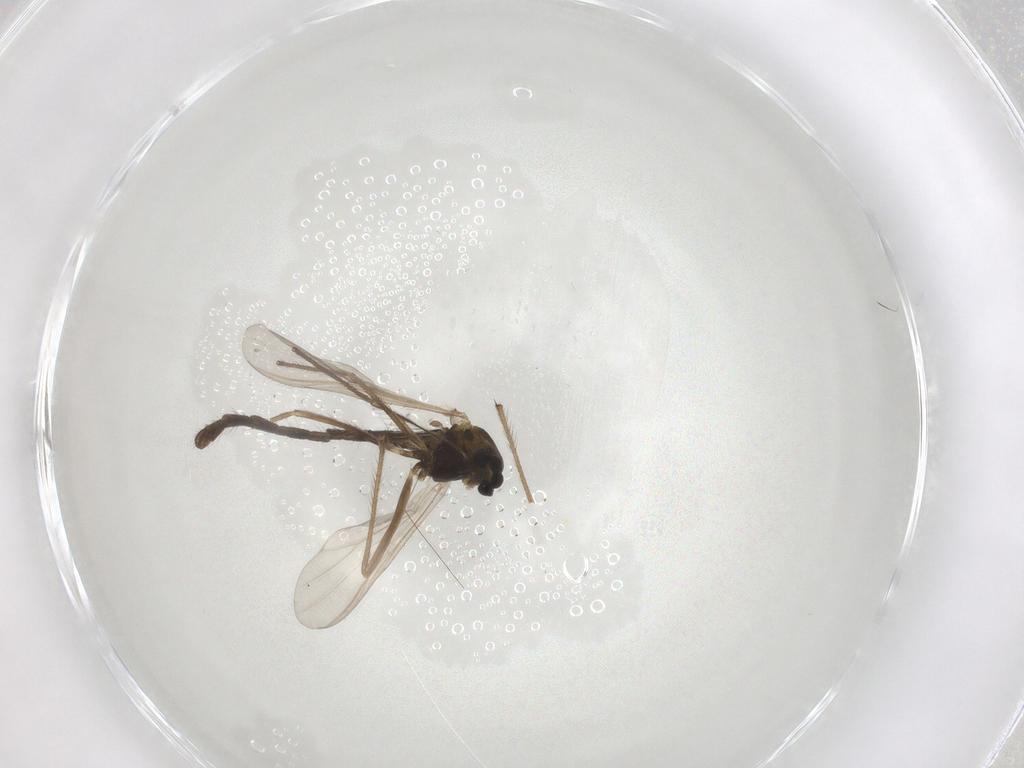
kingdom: Animalia
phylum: Arthropoda
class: Insecta
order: Diptera
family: Chironomidae
